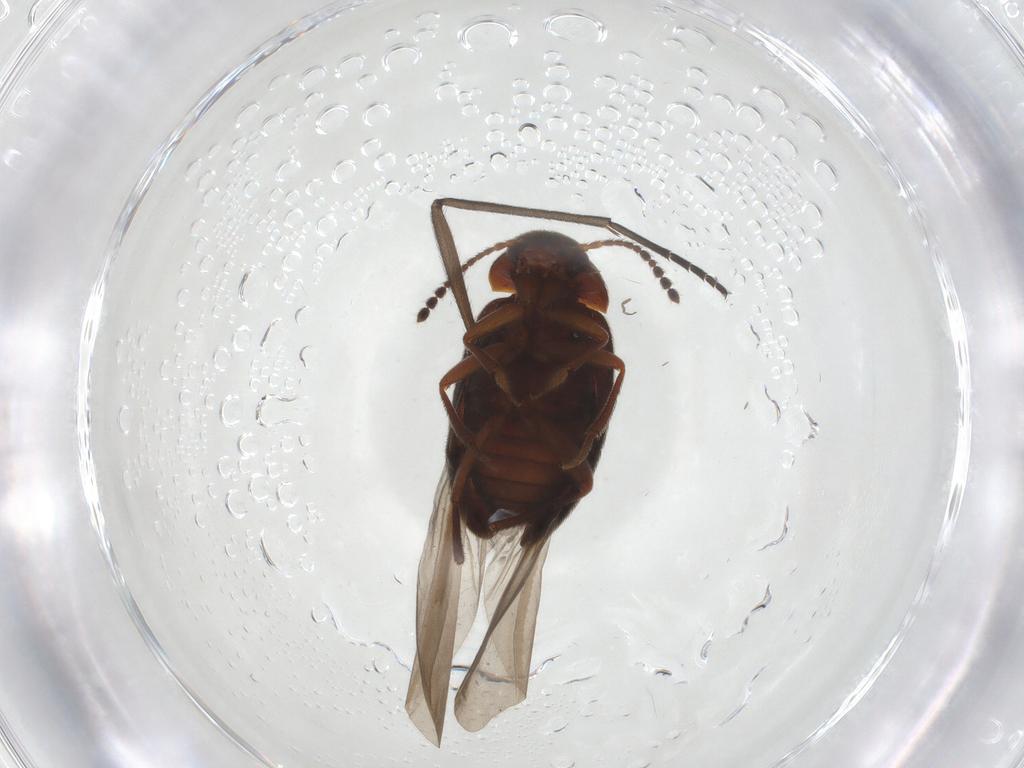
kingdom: Animalia
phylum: Arthropoda
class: Insecta
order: Coleoptera
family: Leiodidae
